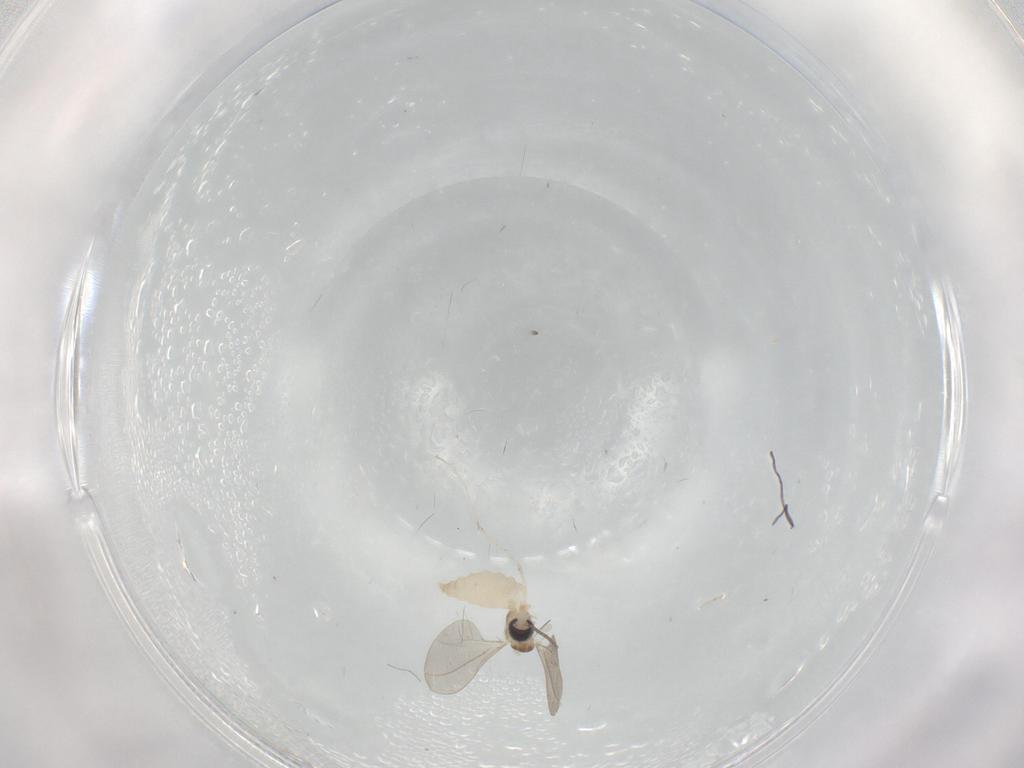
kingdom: Animalia
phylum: Arthropoda
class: Insecta
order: Diptera
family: Cecidomyiidae
